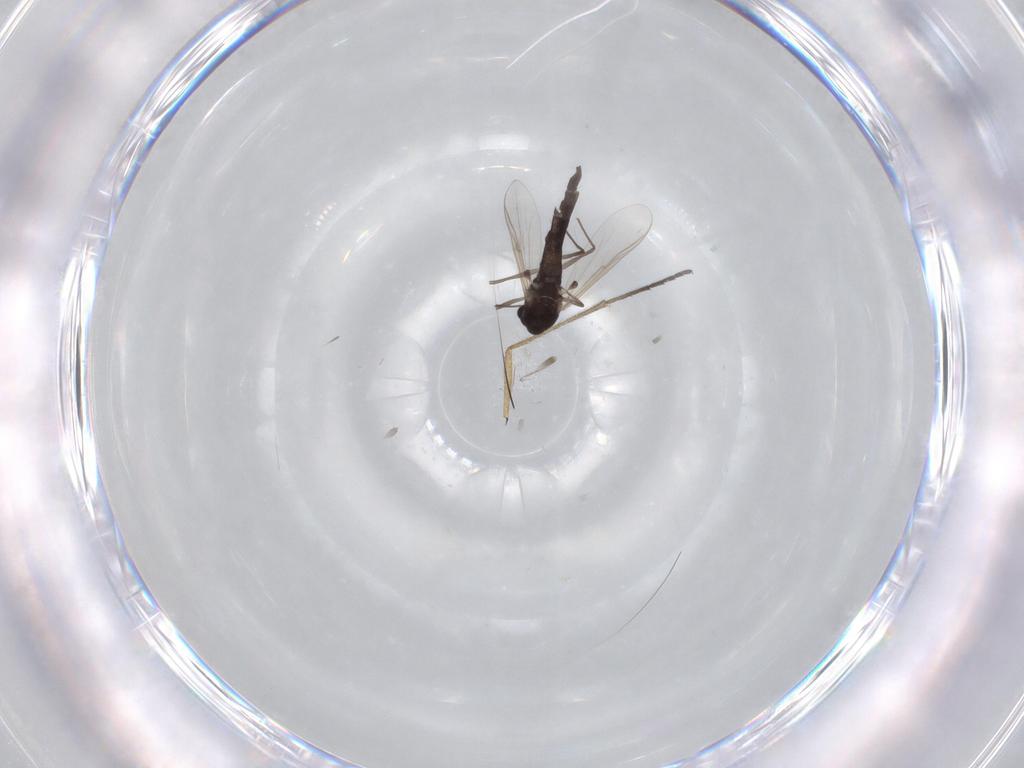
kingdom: Animalia
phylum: Arthropoda
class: Insecta
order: Diptera
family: Chironomidae
